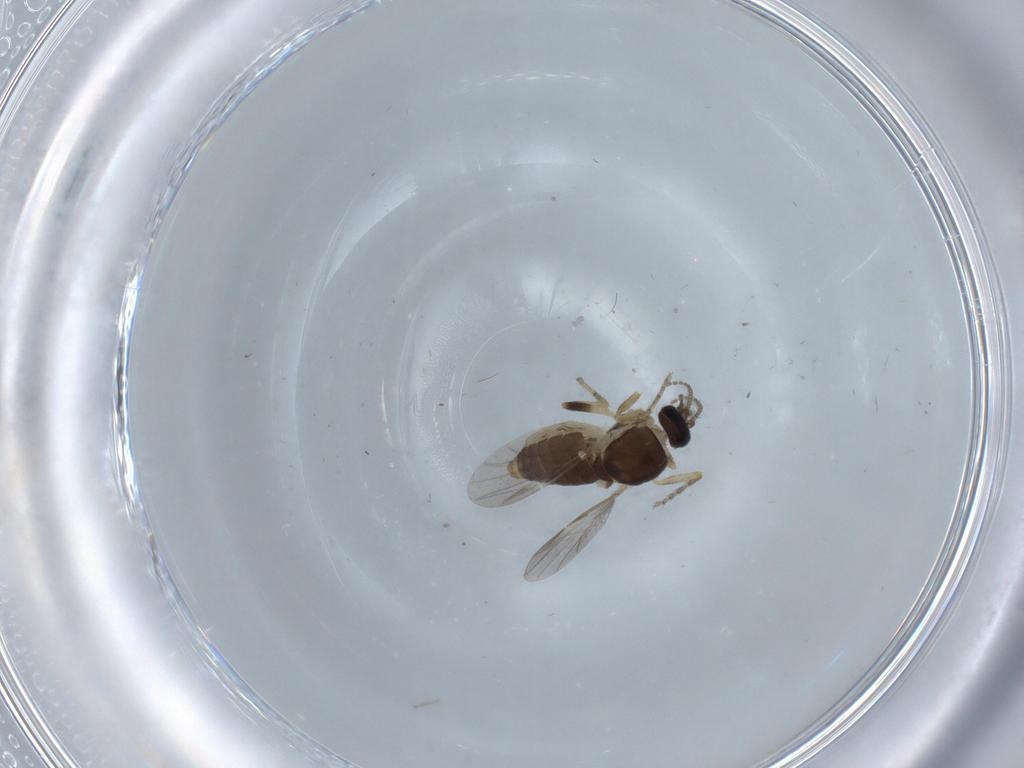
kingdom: Animalia
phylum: Arthropoda
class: Insecta
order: Diptera
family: Ceratopogonidae
